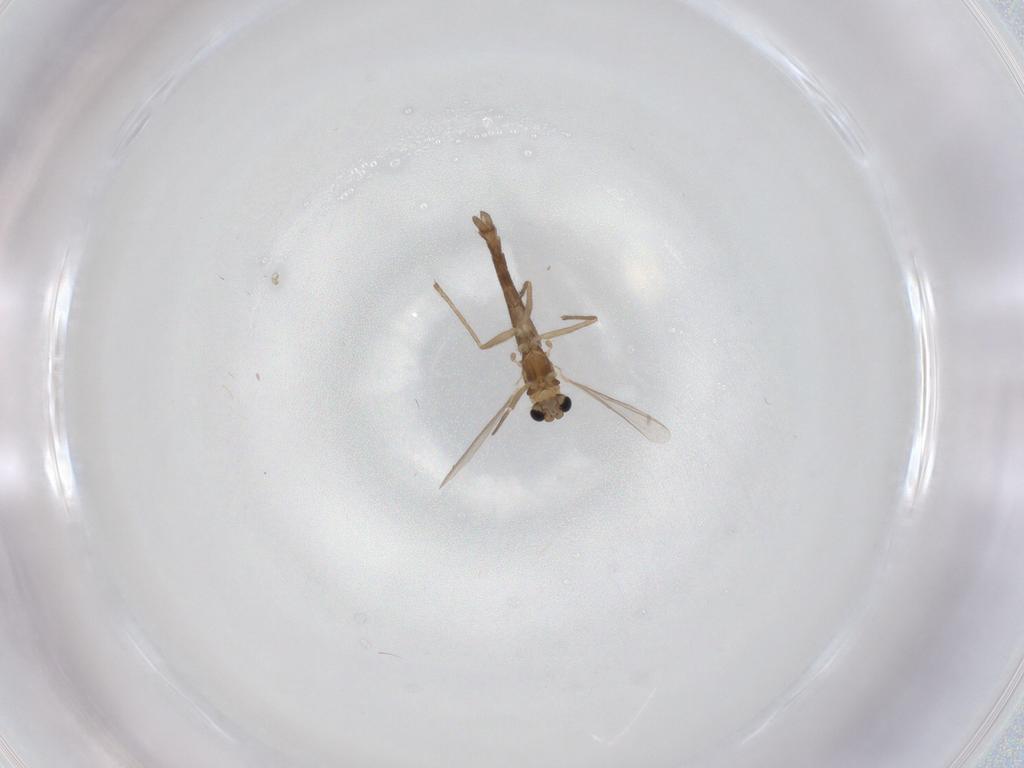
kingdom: Animalia
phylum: Arthropoda
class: Insecta
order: Diptera
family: Chironomidae
